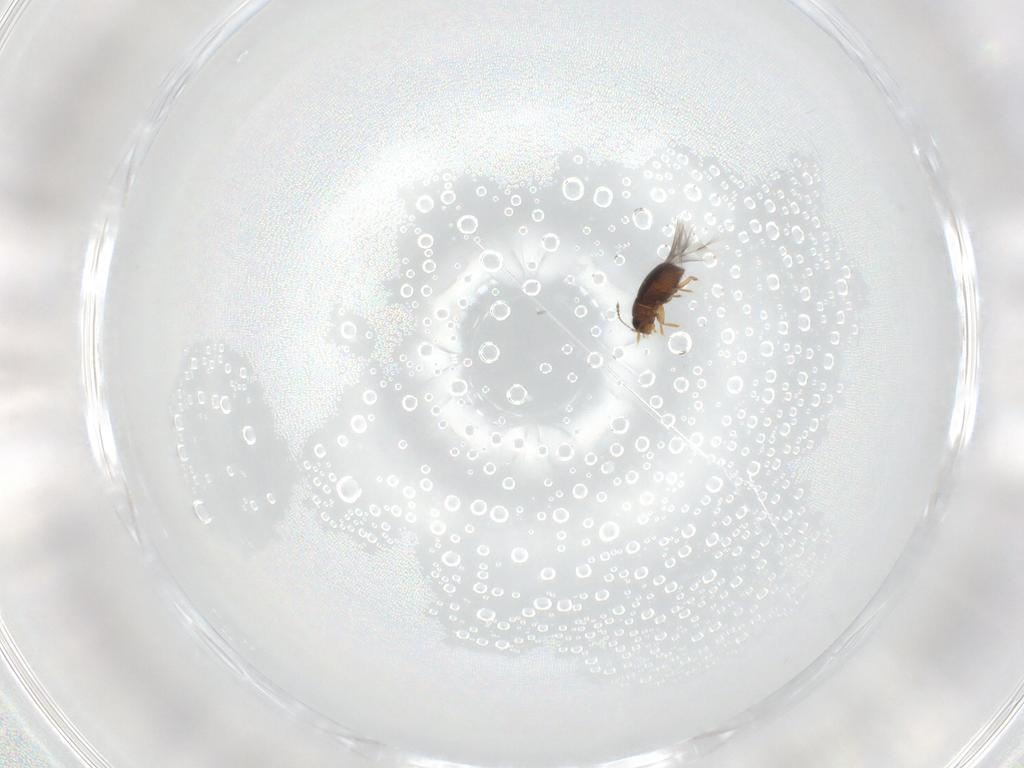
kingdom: Animalia
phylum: Arthropoda
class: Insecta
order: Coleoptera
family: Ptiliidae
